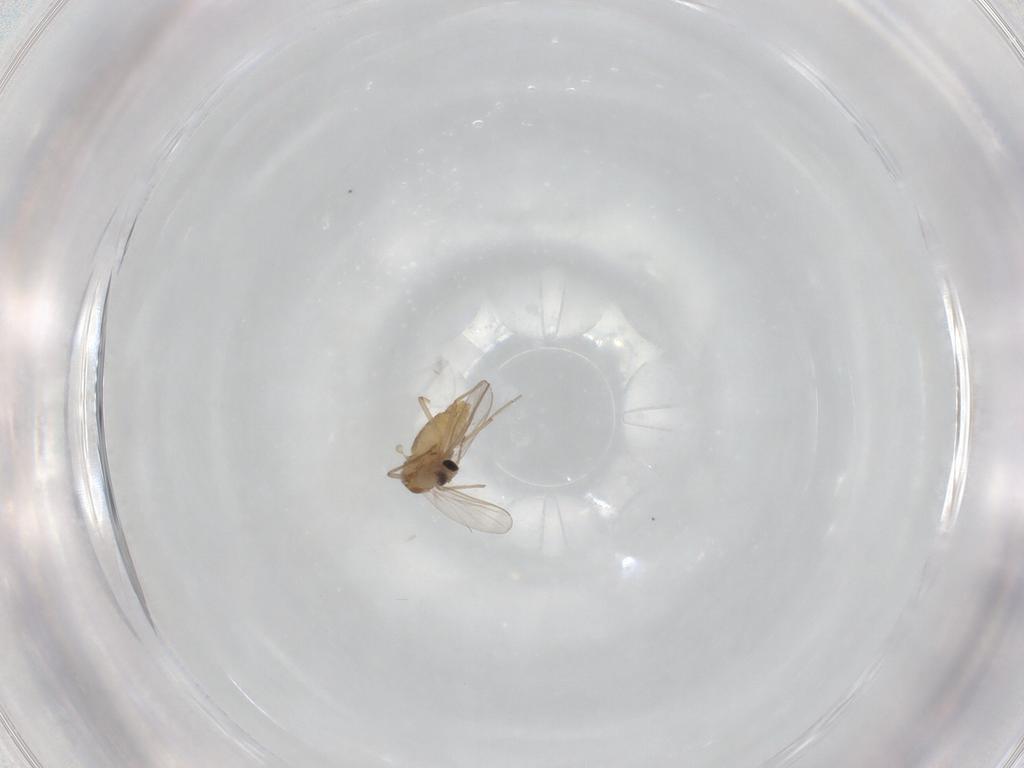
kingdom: Animalia
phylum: Arthropoda
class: Insecta
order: Diptera
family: Chironomidae
